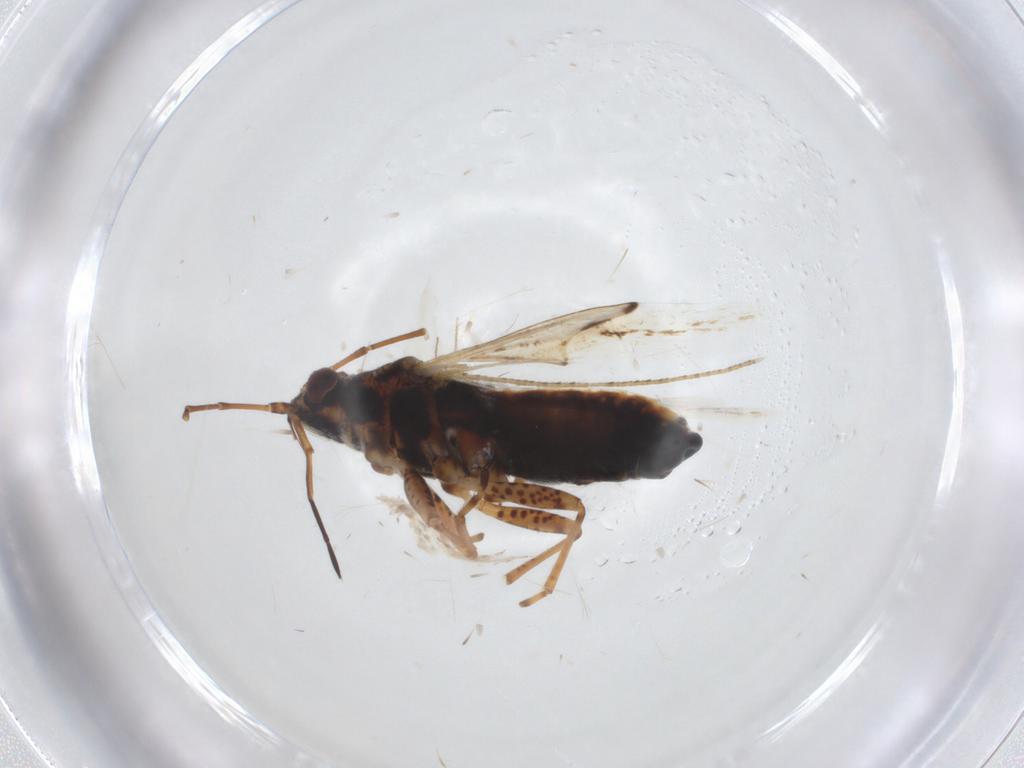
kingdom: Animalia
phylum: Arthropoda
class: Insecta
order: Hemiptera
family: Lygaeidae
